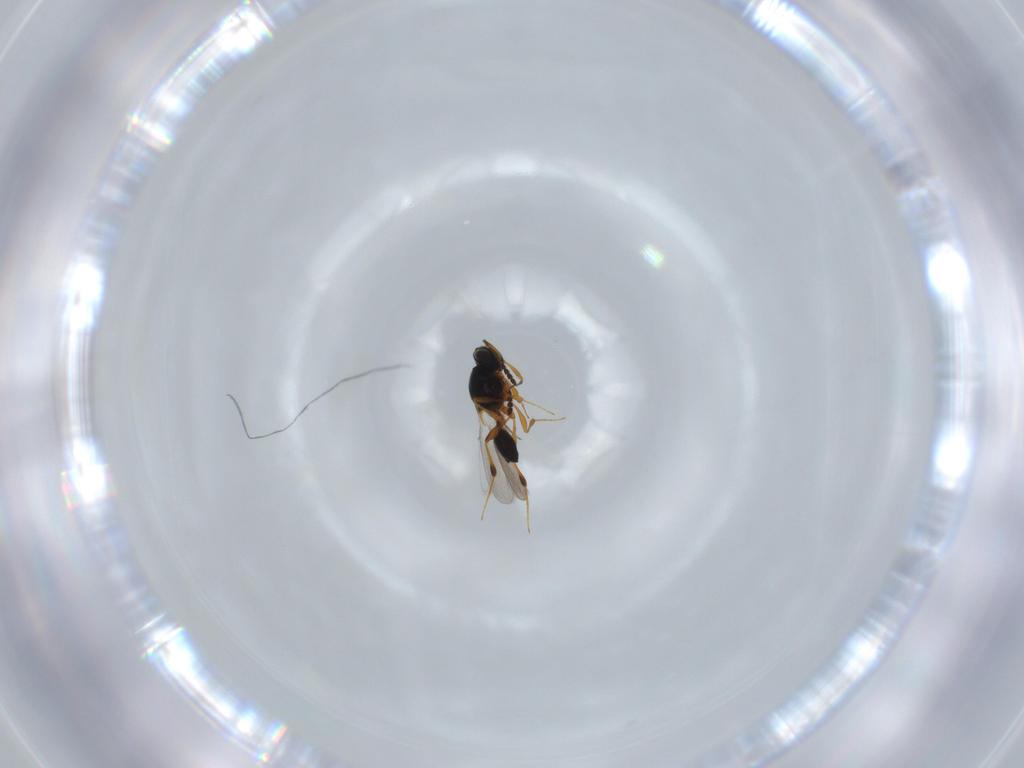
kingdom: Animalia
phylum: Arthropoda
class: Insecta
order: Hymenoptera
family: Platygastridae
